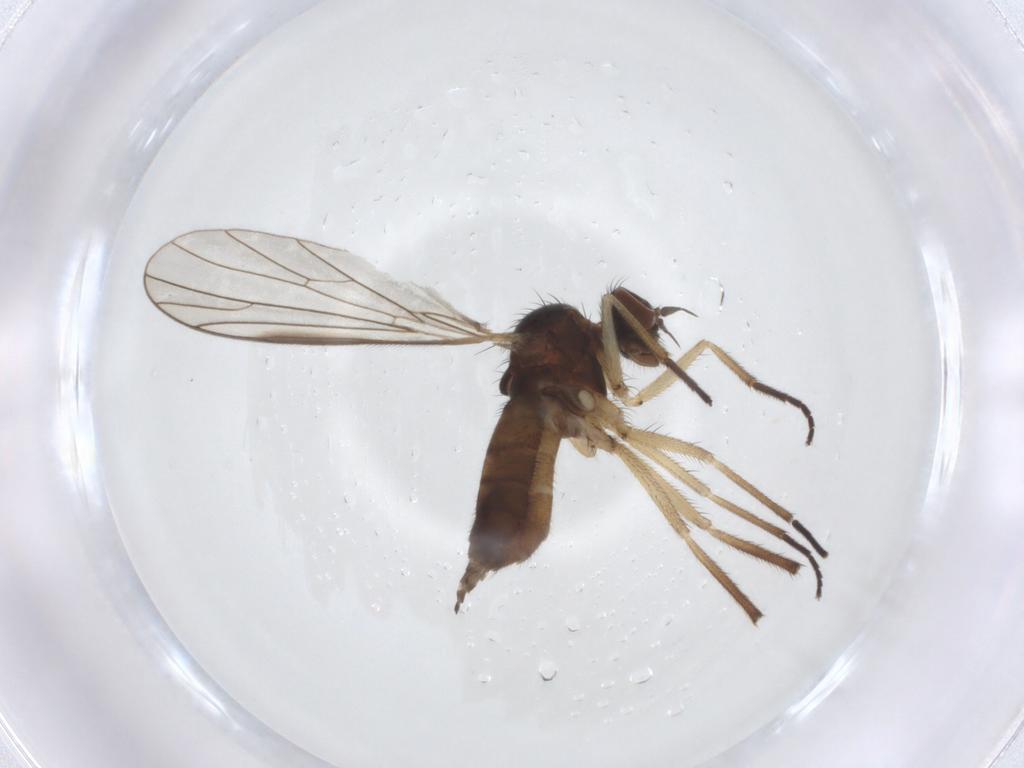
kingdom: Animalia
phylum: Arthropoda
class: Insecta
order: Diptera
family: Empididae
